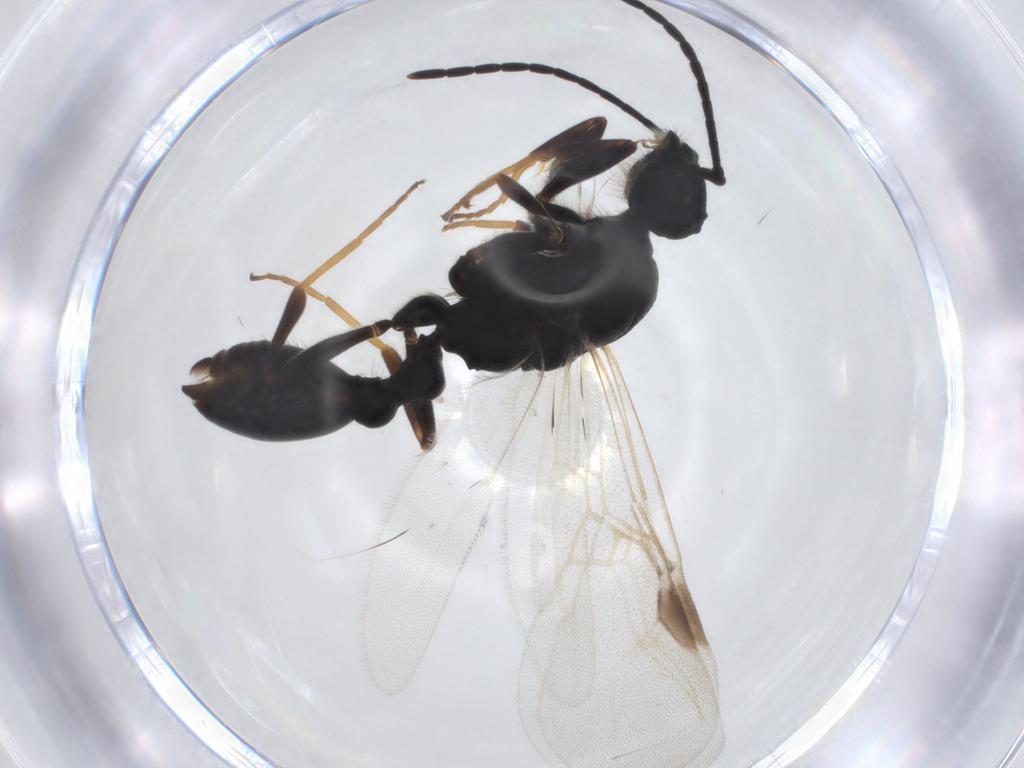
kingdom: Animalia
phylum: Arthropoda
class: Insecta
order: Hymenoptera
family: Formicidae
